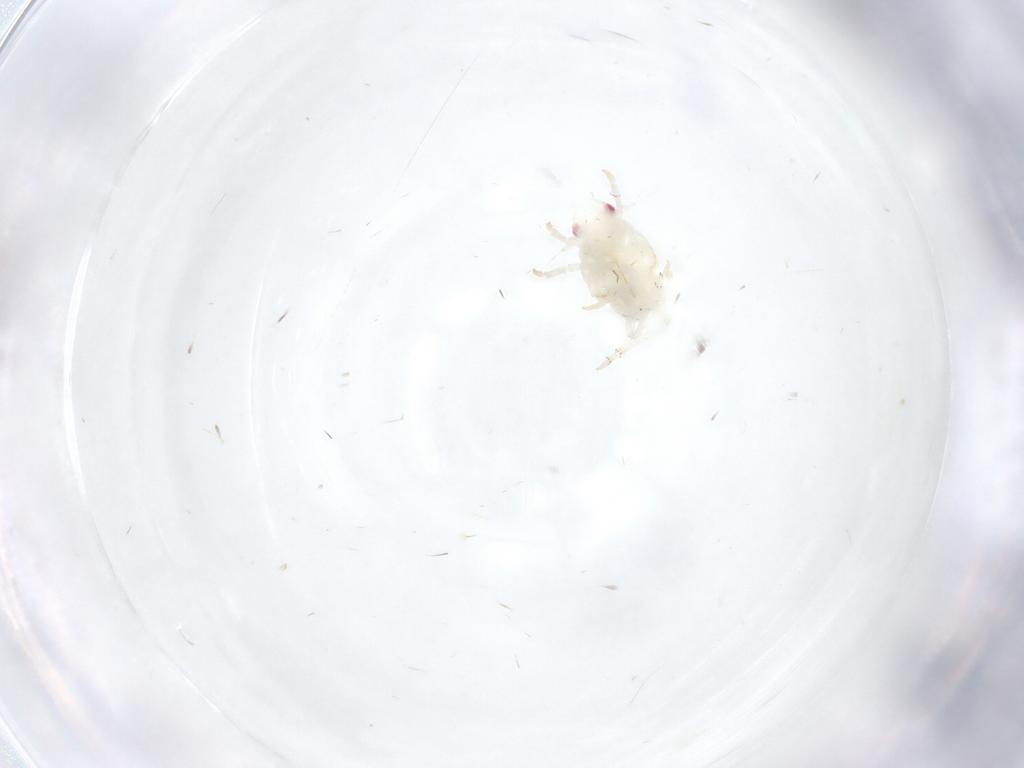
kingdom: Animalia
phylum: Arthropoda
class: Insecta
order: Hemiptera
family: Fulgoroidea_incertae_sedis
